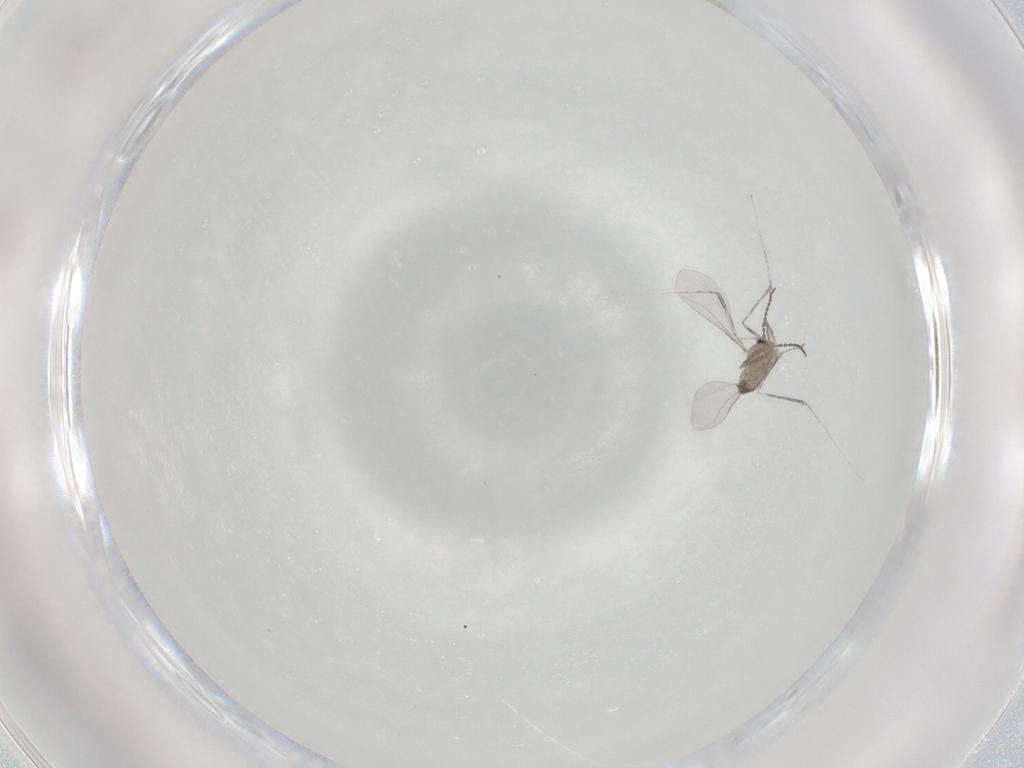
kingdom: Animalia
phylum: Arthropoda
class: Insecta
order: Diptera
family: Cecidomyiidae
